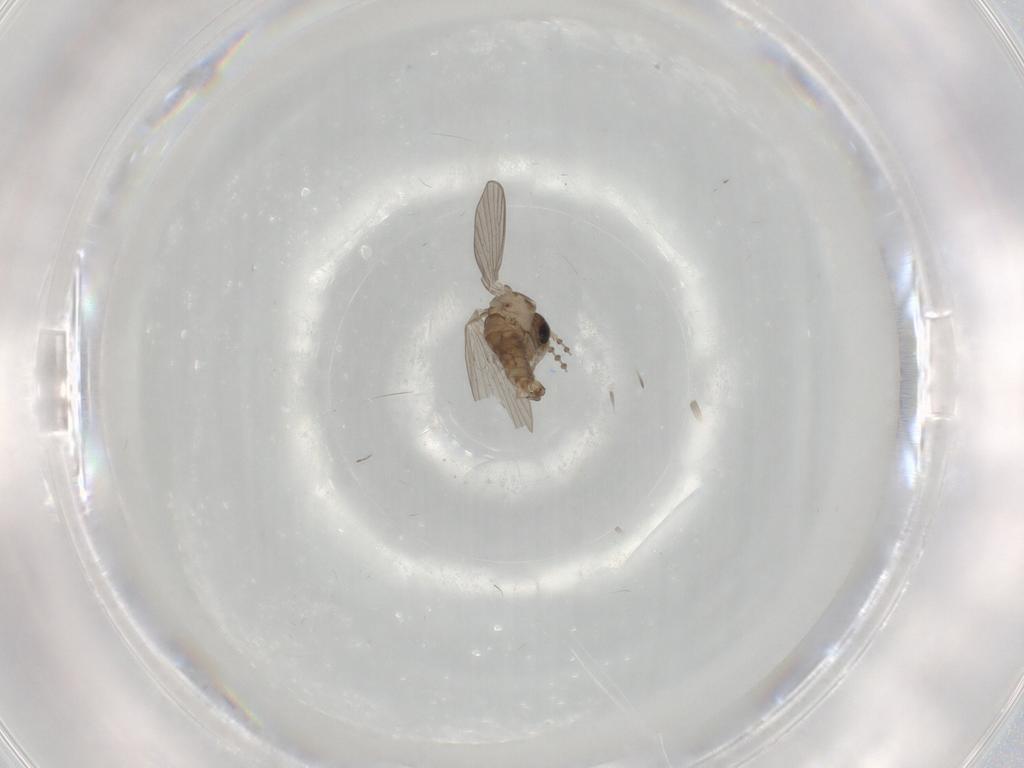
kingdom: Animalia
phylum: Arthropoda
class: Insecta
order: Diptera
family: Psychodidae
